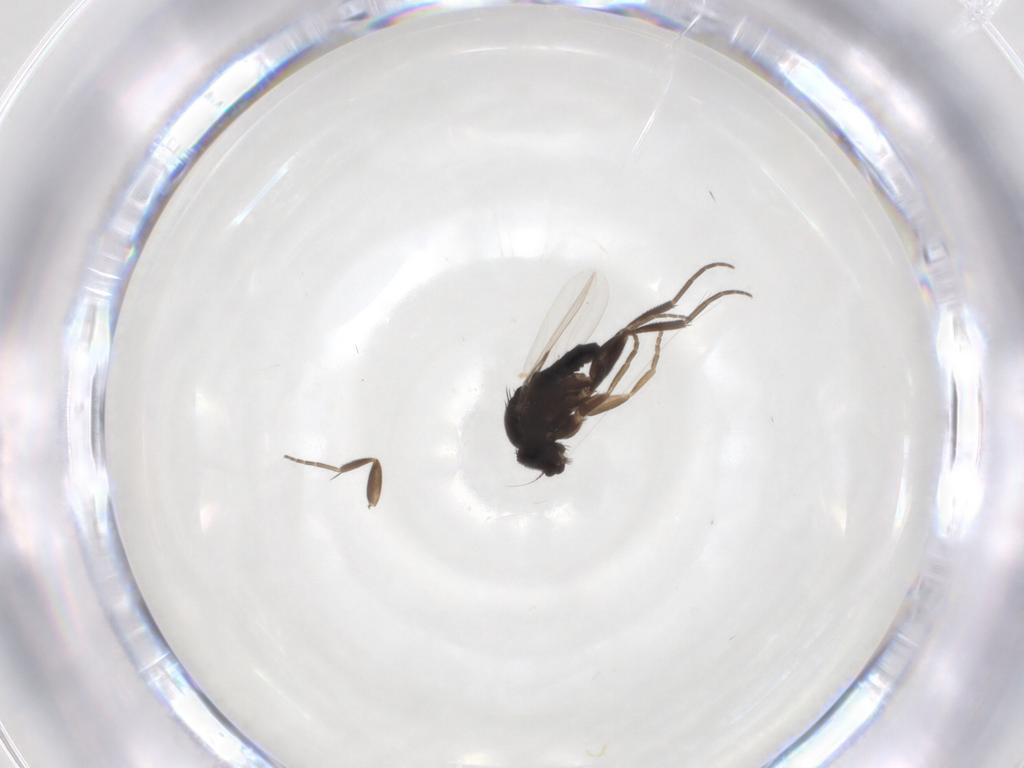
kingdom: Animalia
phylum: Arthropoda
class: Insecta
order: Diptera
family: Phoridae
